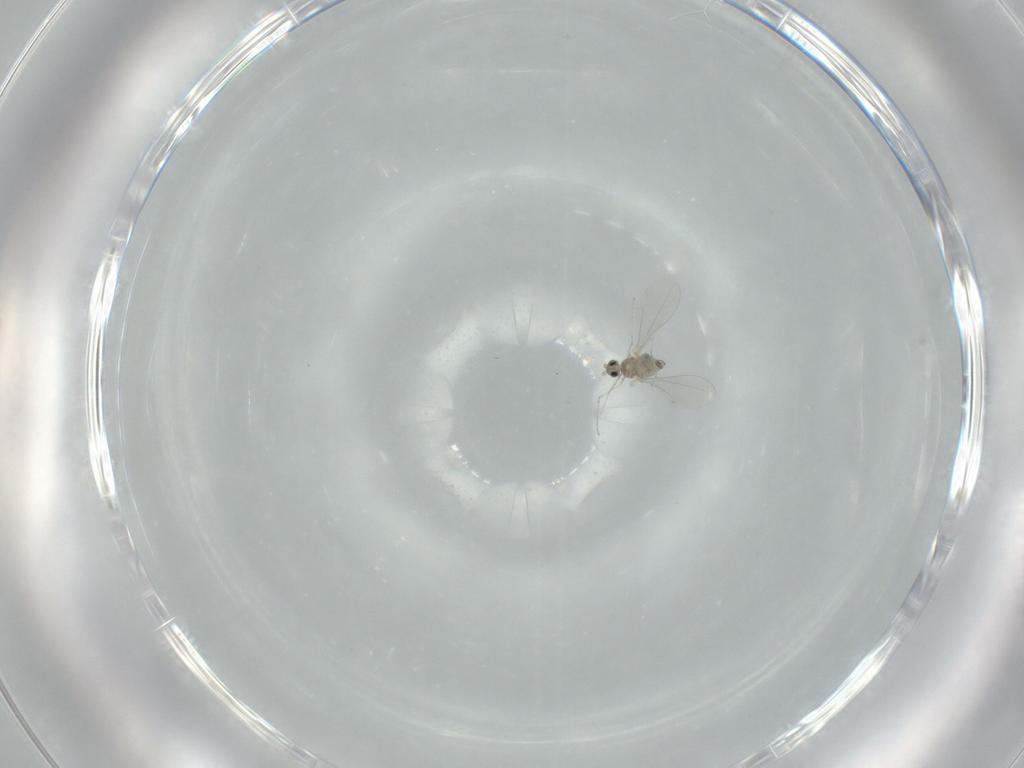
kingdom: Animalia
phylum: Arthropoda
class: Insecta
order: Diptera
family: Cecidomyiidae
